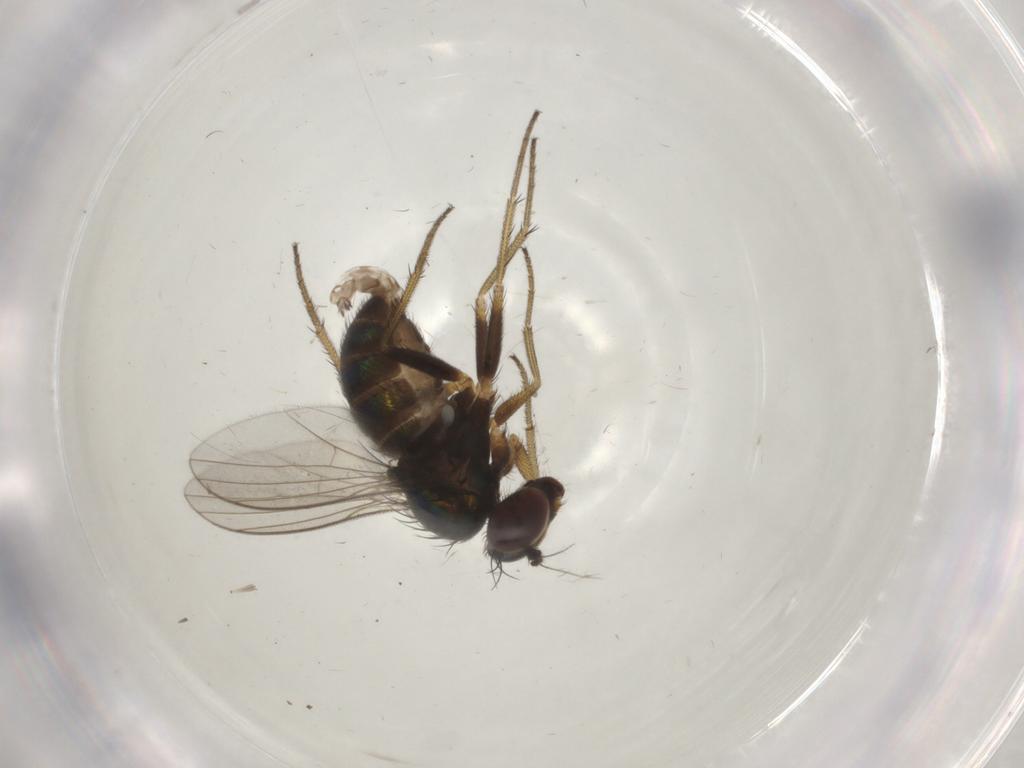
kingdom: Animalia
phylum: Arthropoda
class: Insecta
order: Diptera
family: Dolichopodidae
